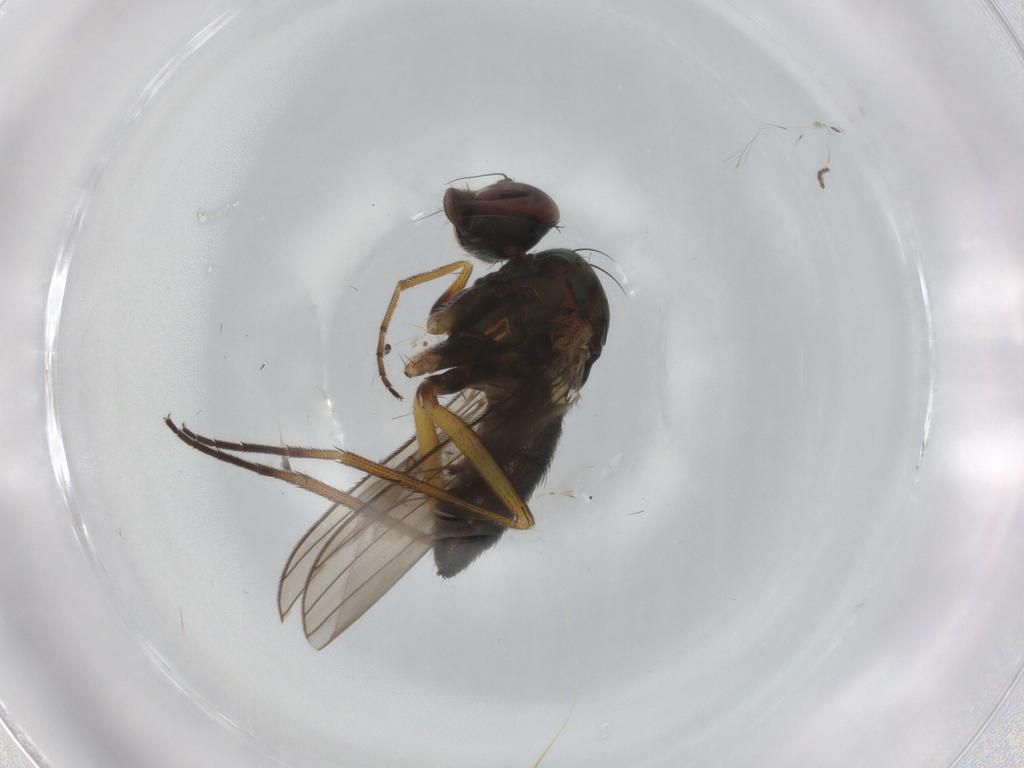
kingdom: Animalia
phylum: Arthropoda
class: Insecta
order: Diptera
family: Dolichopodidae
